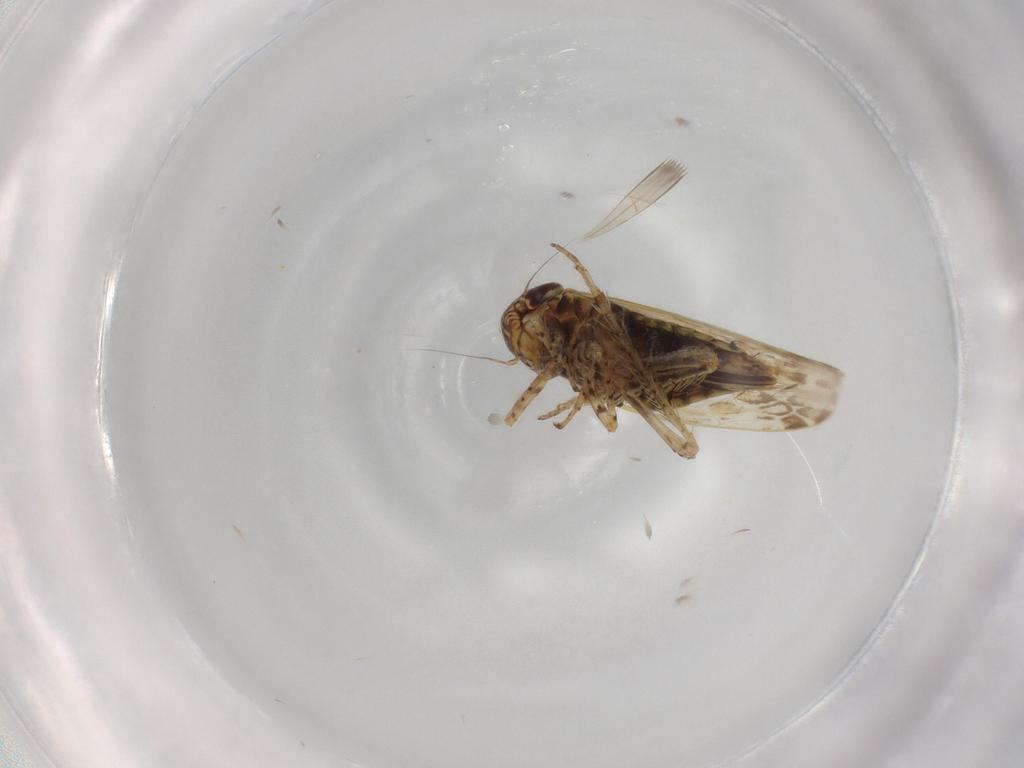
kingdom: Animalia
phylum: Arthropoda
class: Insecta
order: Hemiptera
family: Cicadellidae
